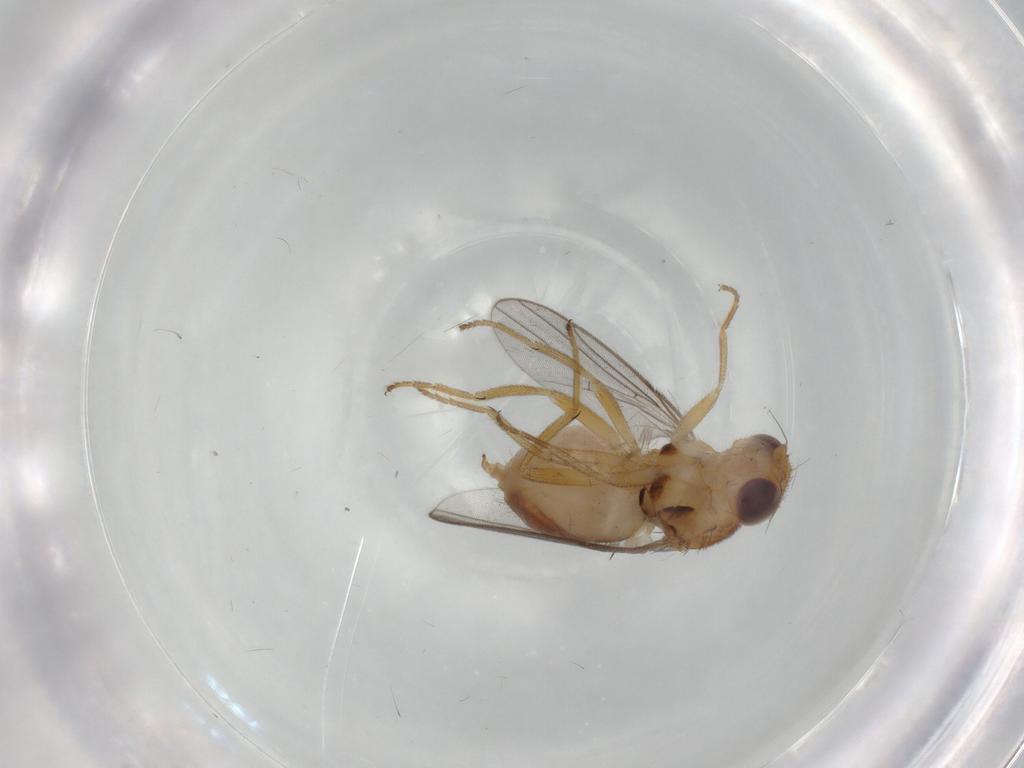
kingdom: Animalia
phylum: Arthropoda
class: Insecta
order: Diptera
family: Chloropidae
